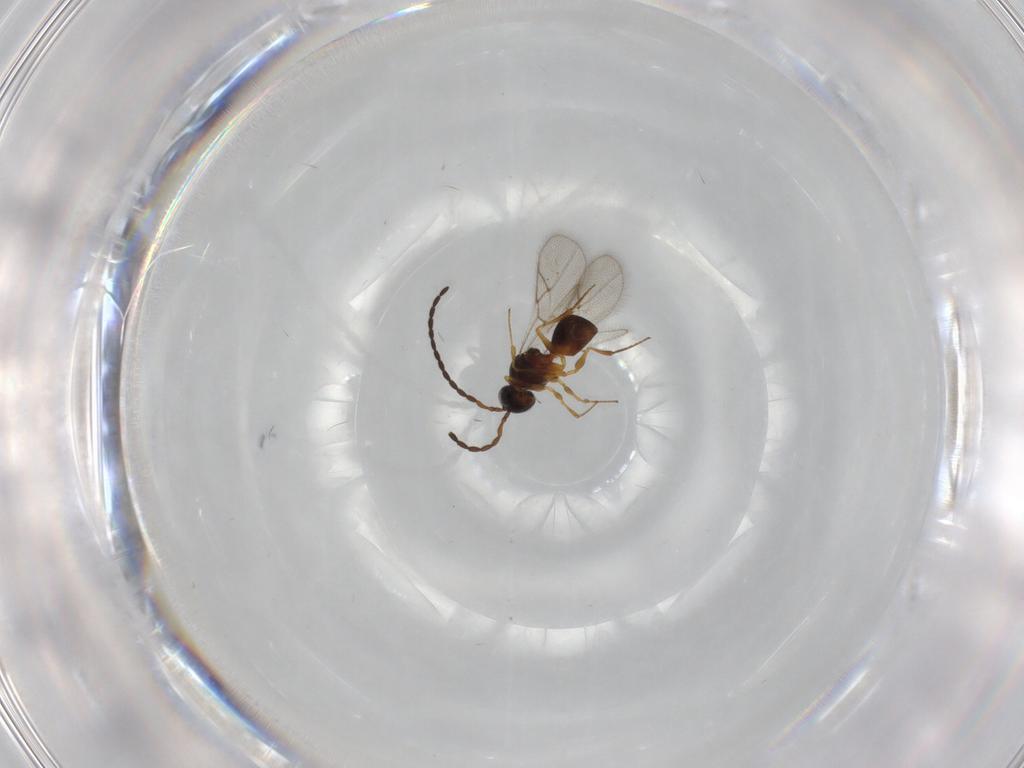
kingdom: Animalia
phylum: Arthropoda
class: Insecta
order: Hymenoptera
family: Figitidae
